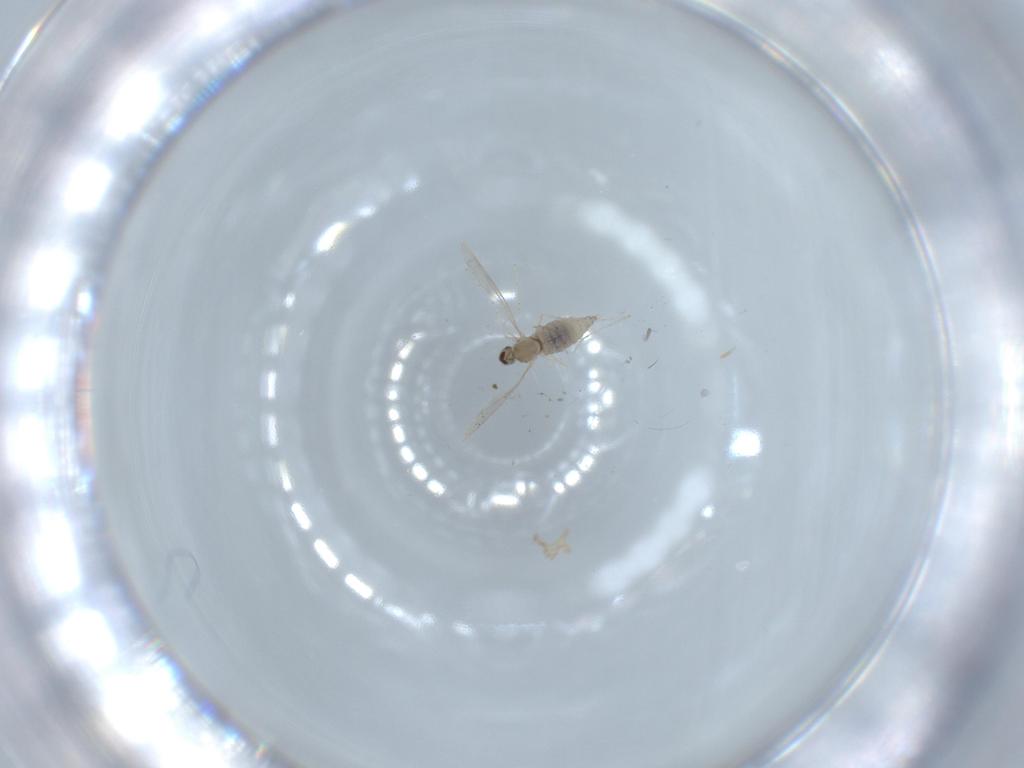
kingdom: Animalia
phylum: Arthropoda
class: Insecta
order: Diptera
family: Cecidomyiidae
